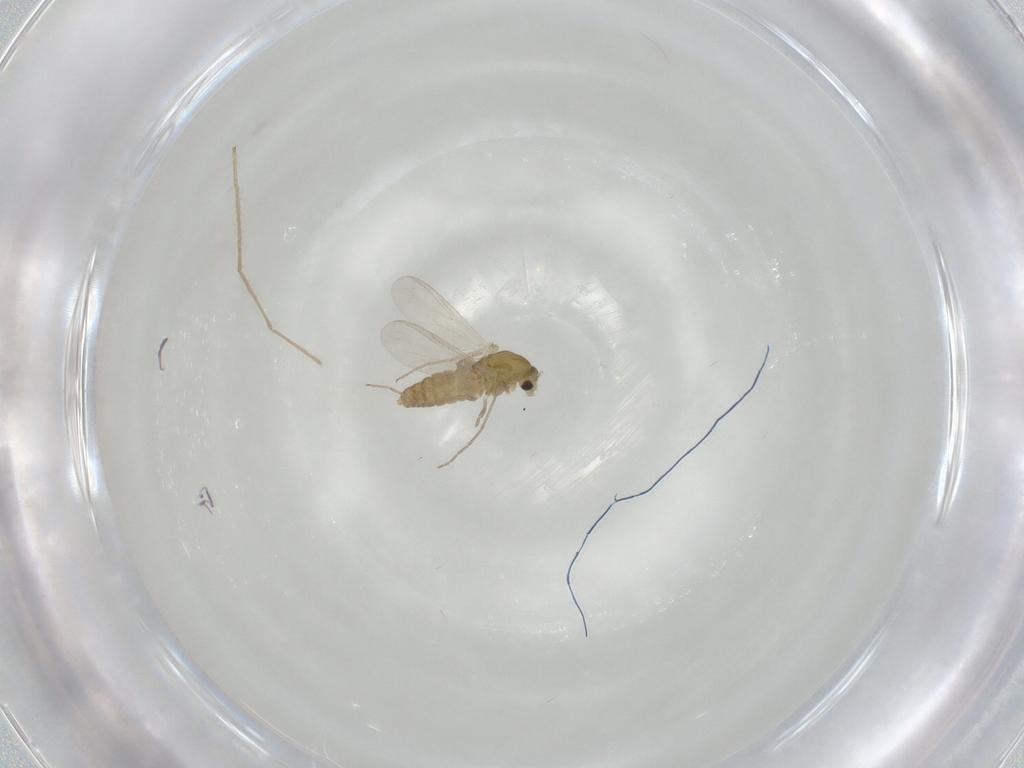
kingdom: Animalia
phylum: Arthropoda
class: Insecta
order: Diptera
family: Chironomidae
